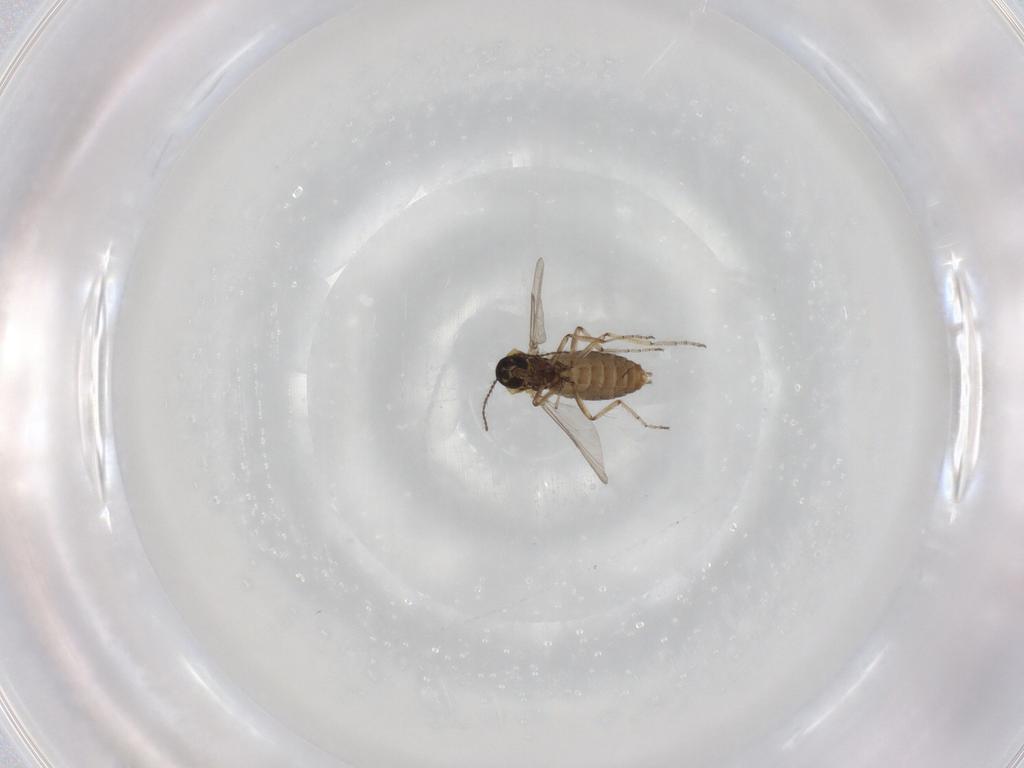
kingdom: Animalia
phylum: Arthropoda
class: Insecta
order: Diptera
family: Ceratopogonidae
